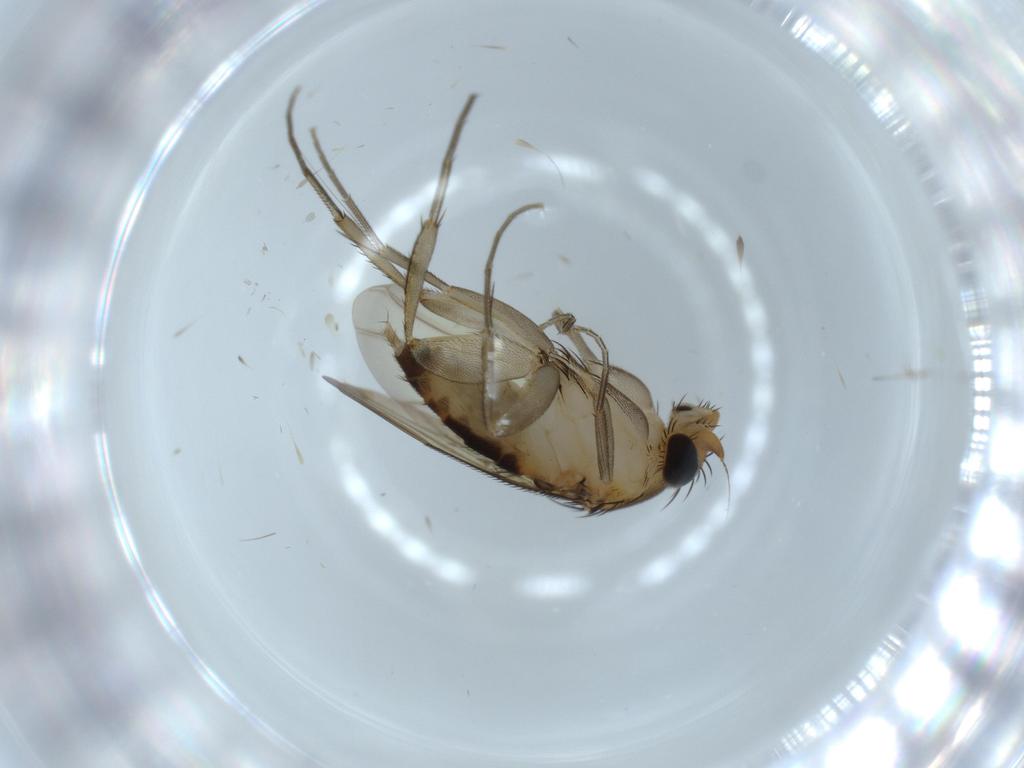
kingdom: Animalia
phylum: Arthropoda
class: Insecta
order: Diptera
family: Phoridae
